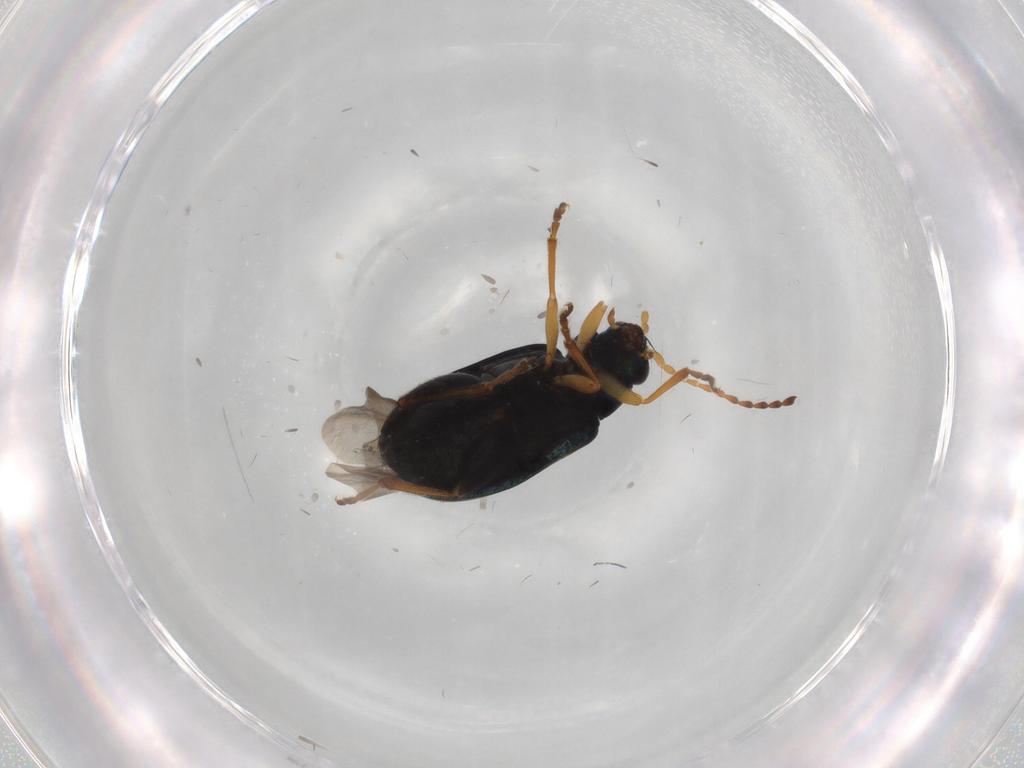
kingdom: Animalia
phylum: Arthropoda
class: Insecta
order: Coleoptera
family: Chrysomelidae
